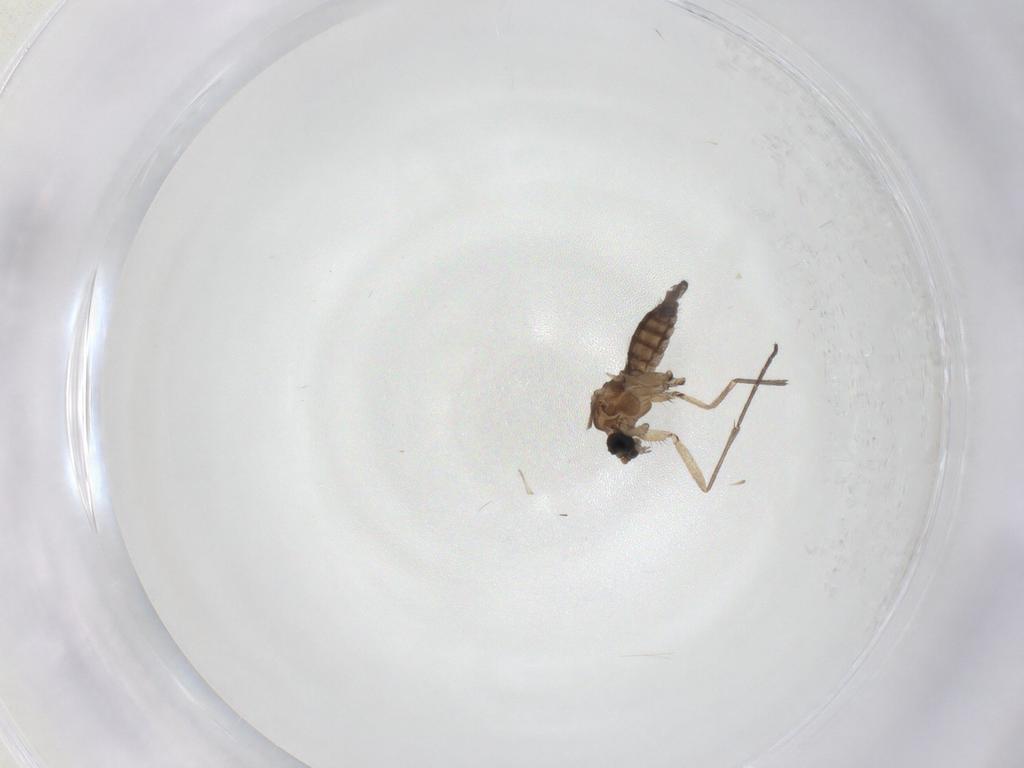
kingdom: Animalia
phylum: Arthropoda
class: Insecta
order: Diptera
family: Sciaridae
